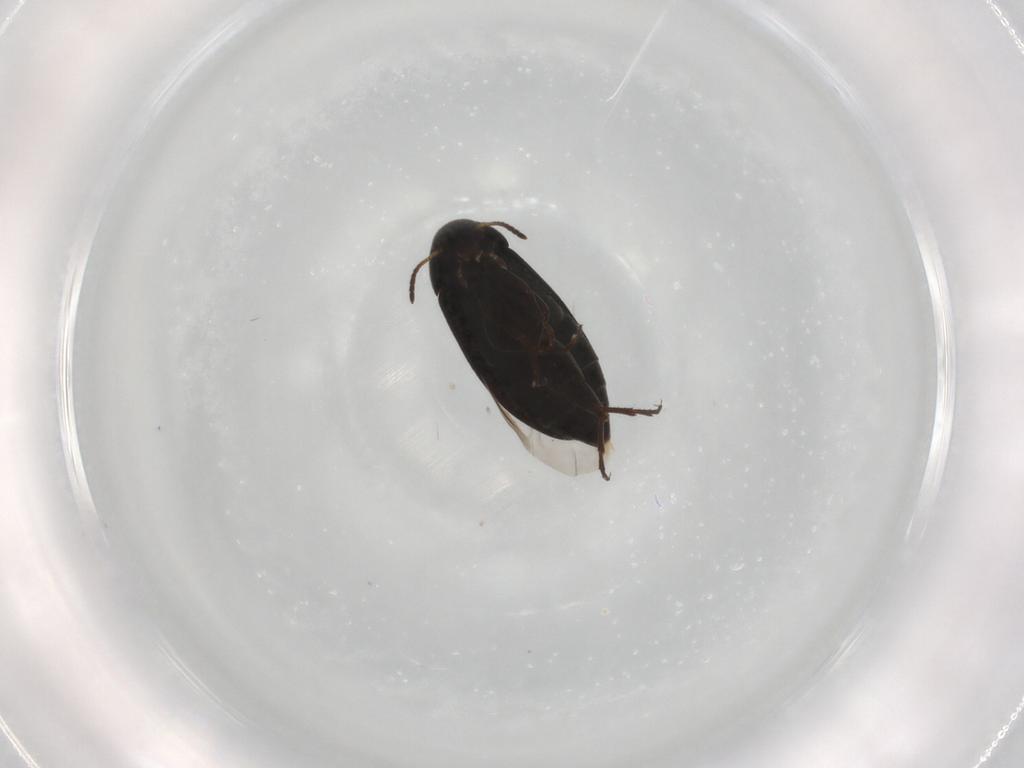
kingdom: Animalia
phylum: Arthropoda
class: Insecta
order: Coleoptera
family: Scraptiidae
